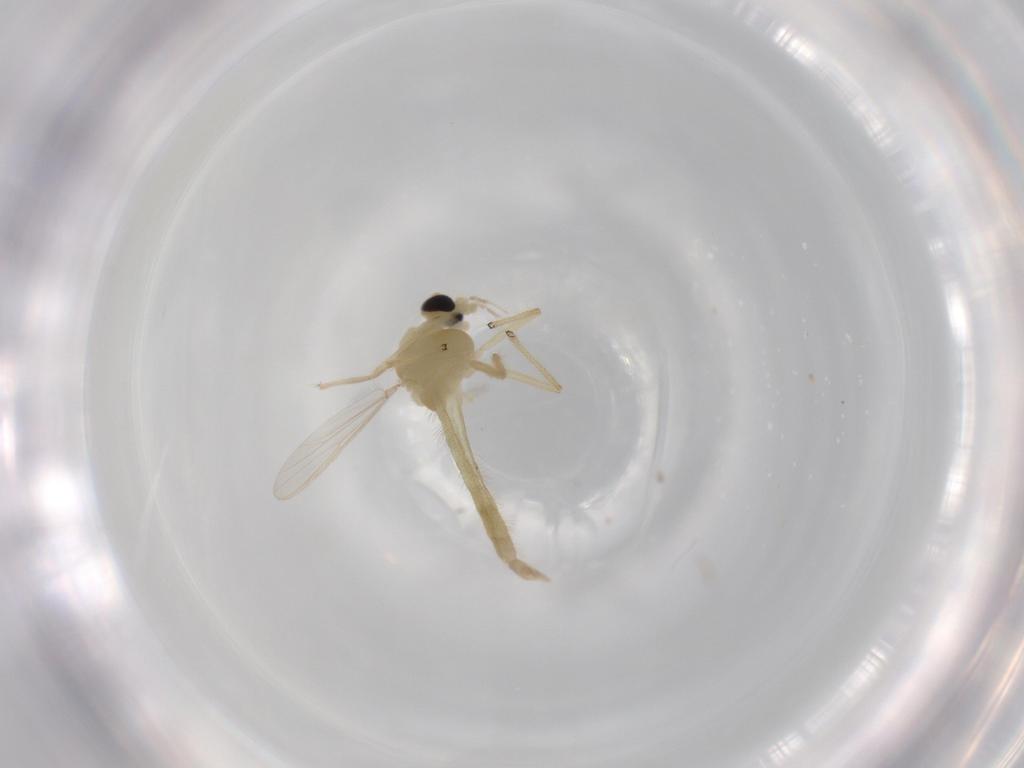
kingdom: Animalia
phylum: Arthropoda
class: Insecta
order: Diptera
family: Chironomidae
